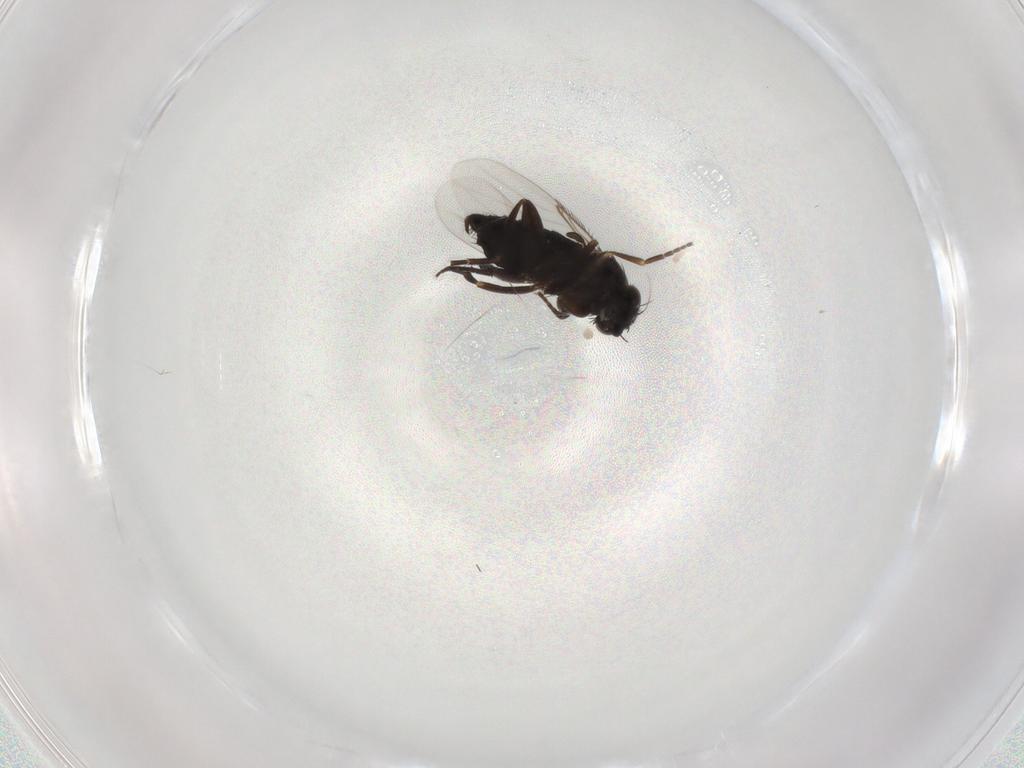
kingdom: Animalia
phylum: Arthropoda
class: Insecta
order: Diptera
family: Phoridae
